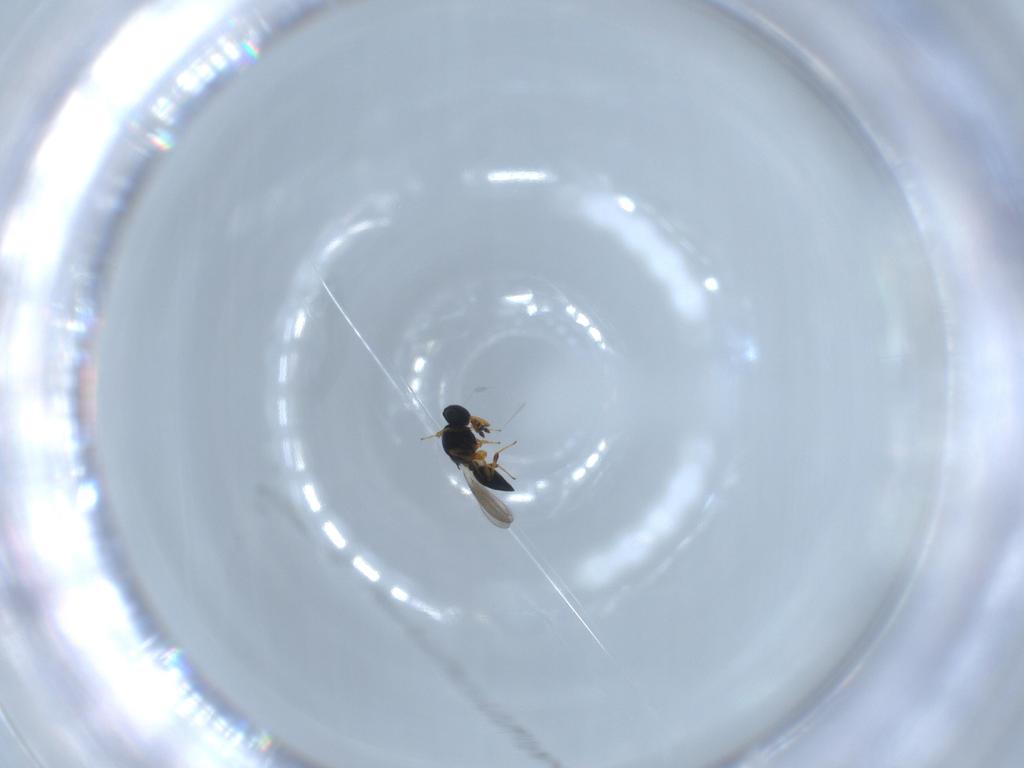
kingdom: Animalia
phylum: Arthropoda
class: Insecta
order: Hymenoptera
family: Platygastridae
